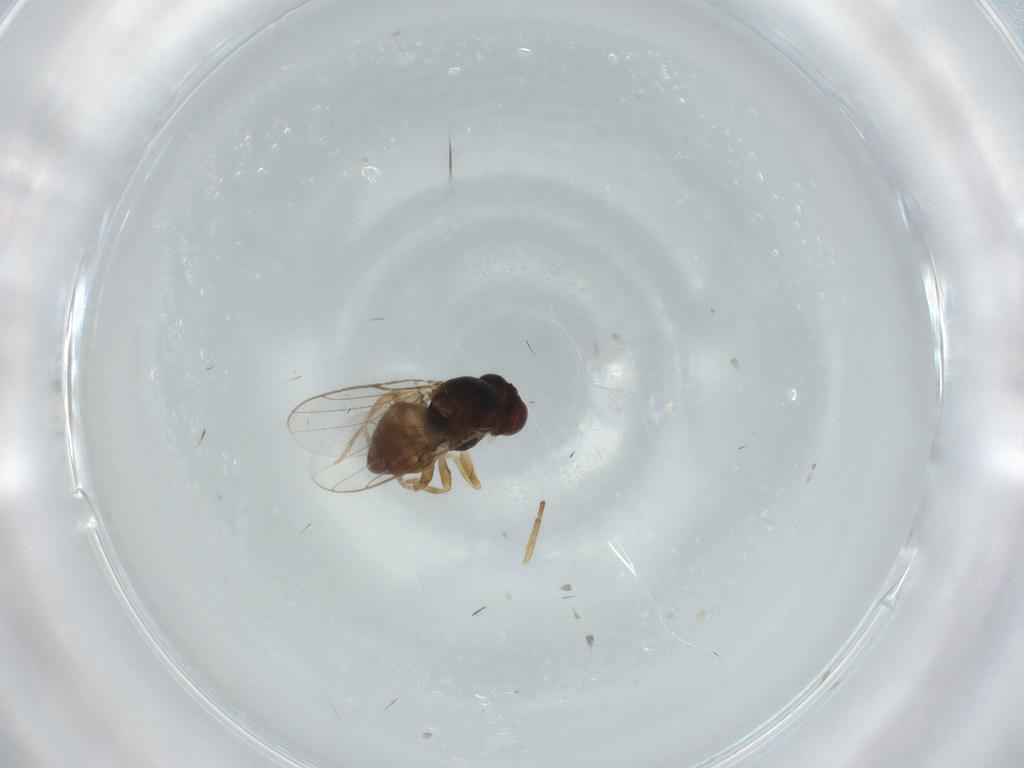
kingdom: Animalia
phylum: Arthropoda
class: Insecta
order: Diptera
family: Chloropidae
